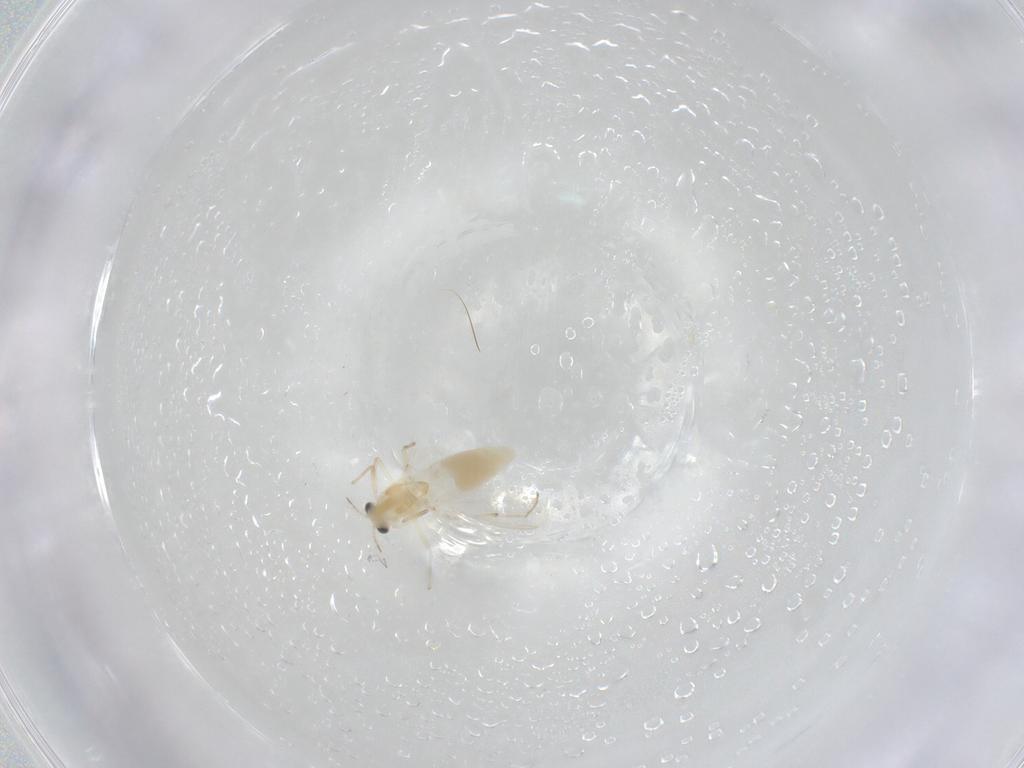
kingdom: Animalia
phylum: Arthropoda
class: Insecta
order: Diptera
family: Chironomidae
